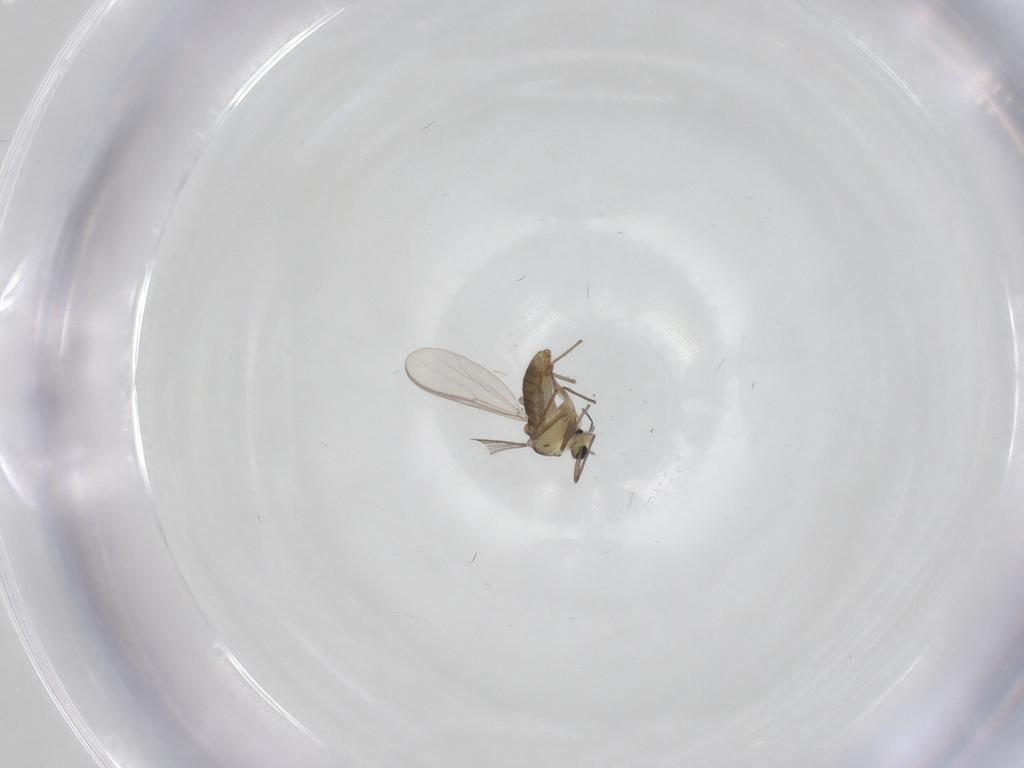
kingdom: Animalia
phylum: Arthropoda
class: Insecta
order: Diptera
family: Chironomidae
